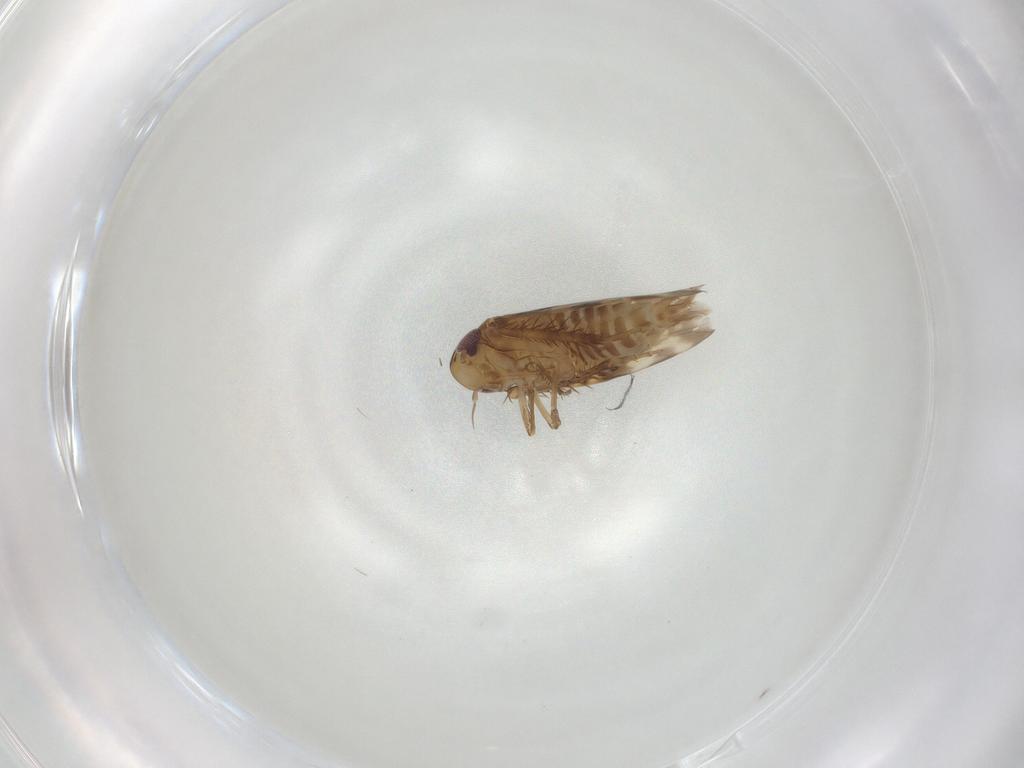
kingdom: Animalia
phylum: Arthropoda
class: Insecta
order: Hemiptera
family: Cicadellidae
